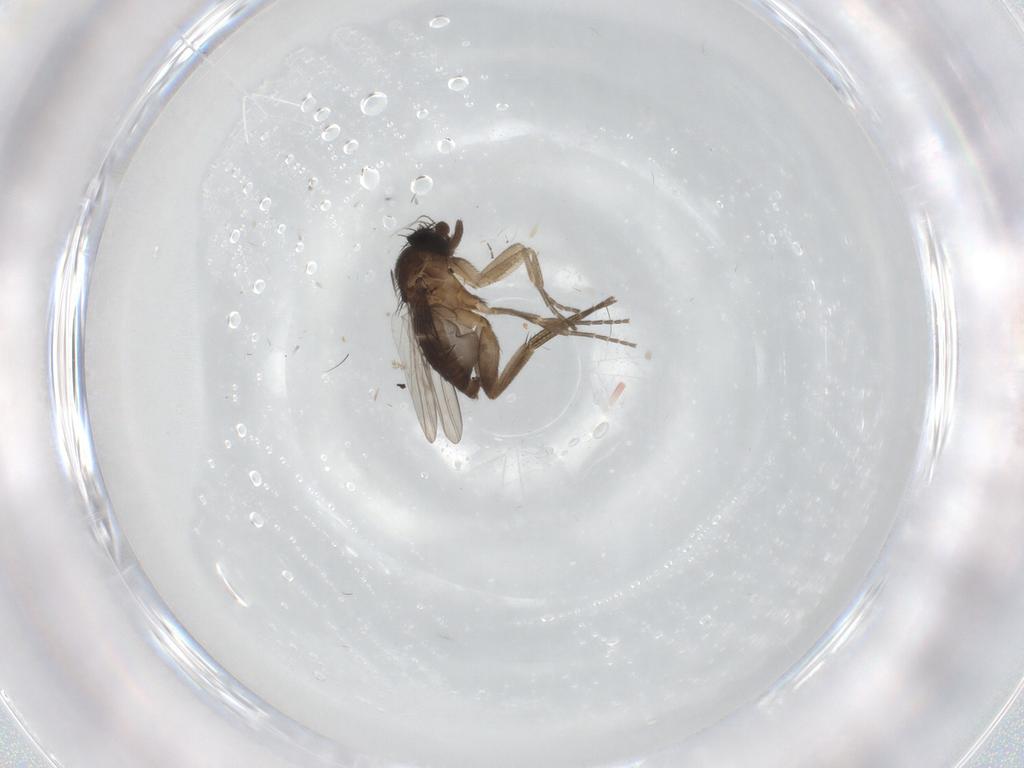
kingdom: Animalia
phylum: Arthropoda
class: Insecta
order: Diptera
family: Phoridae
